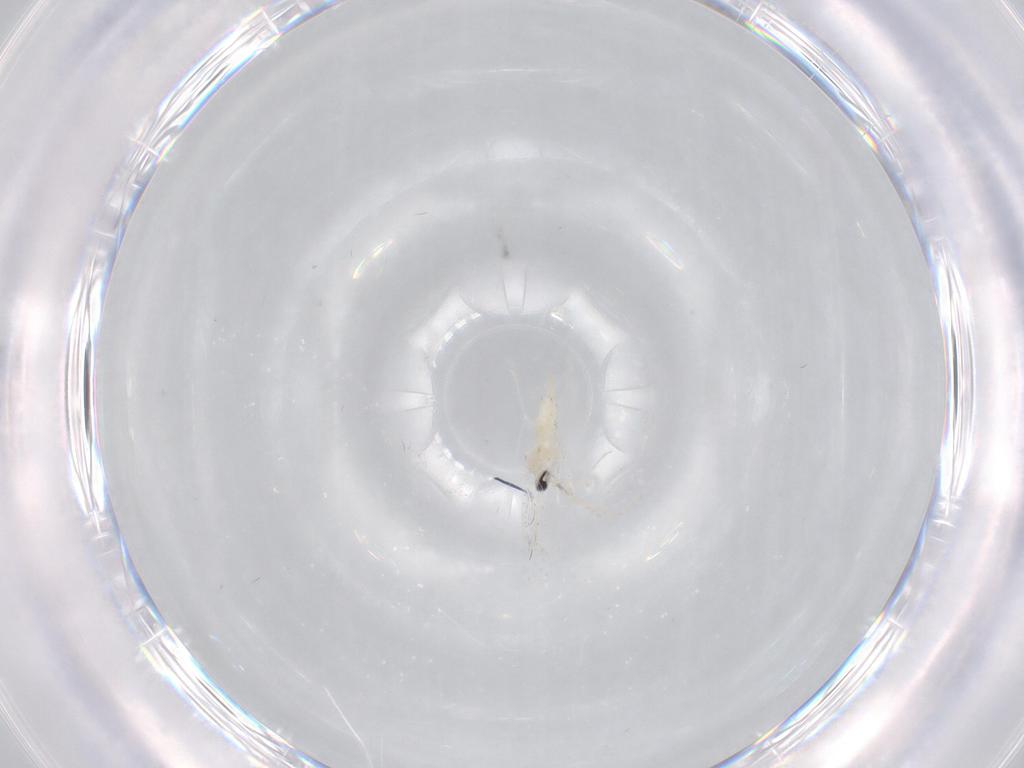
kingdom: Animalia
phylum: Arthropoda
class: Insecta
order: Diptera
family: Cecidomyiidae
